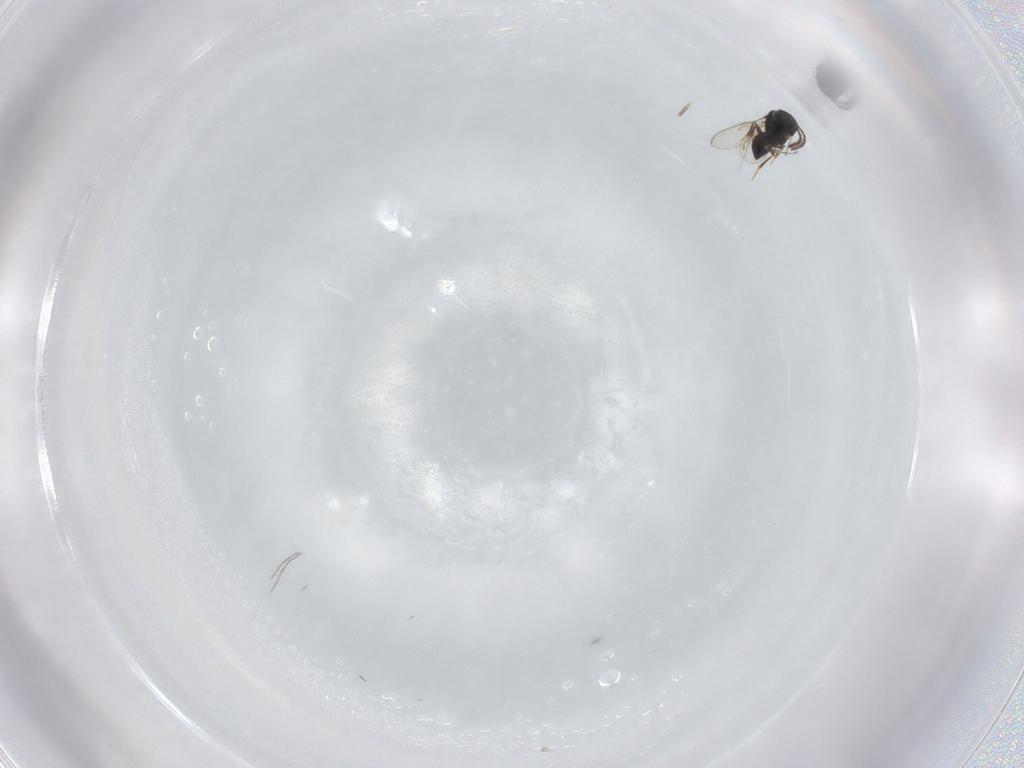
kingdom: Animalia
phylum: Arthropoda
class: Insecta
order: Hymenoptera
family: Scelionidae
